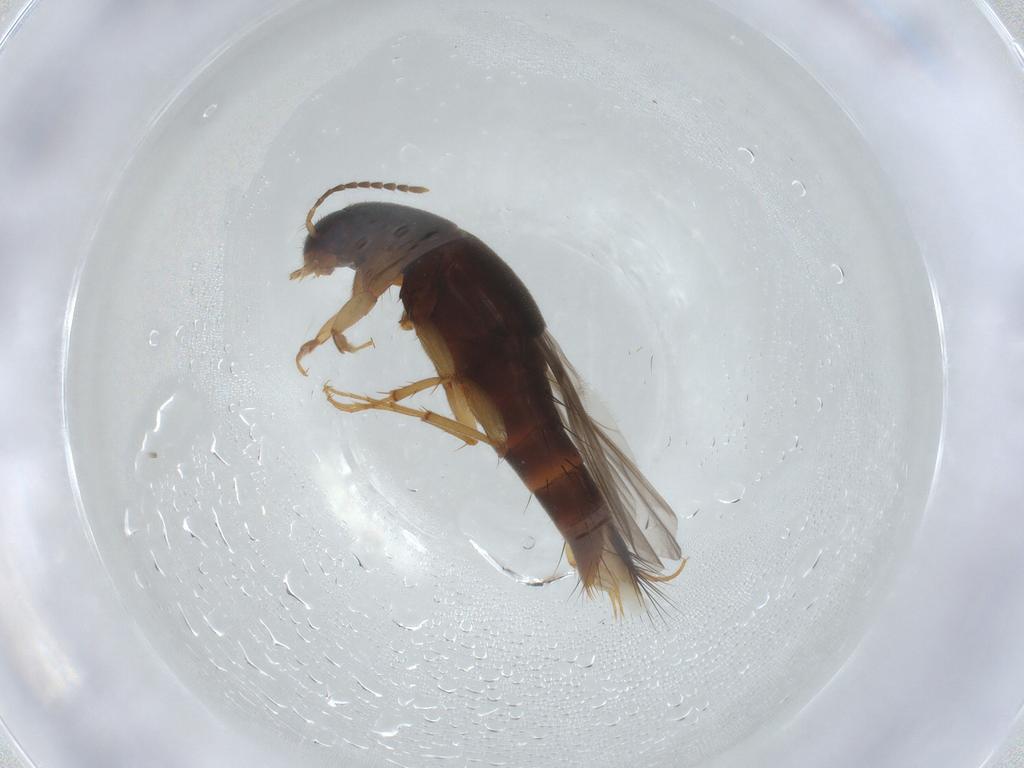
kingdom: Animalia
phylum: Arthropoda
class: Insecta
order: Coleoptera
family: Staphylinidae
